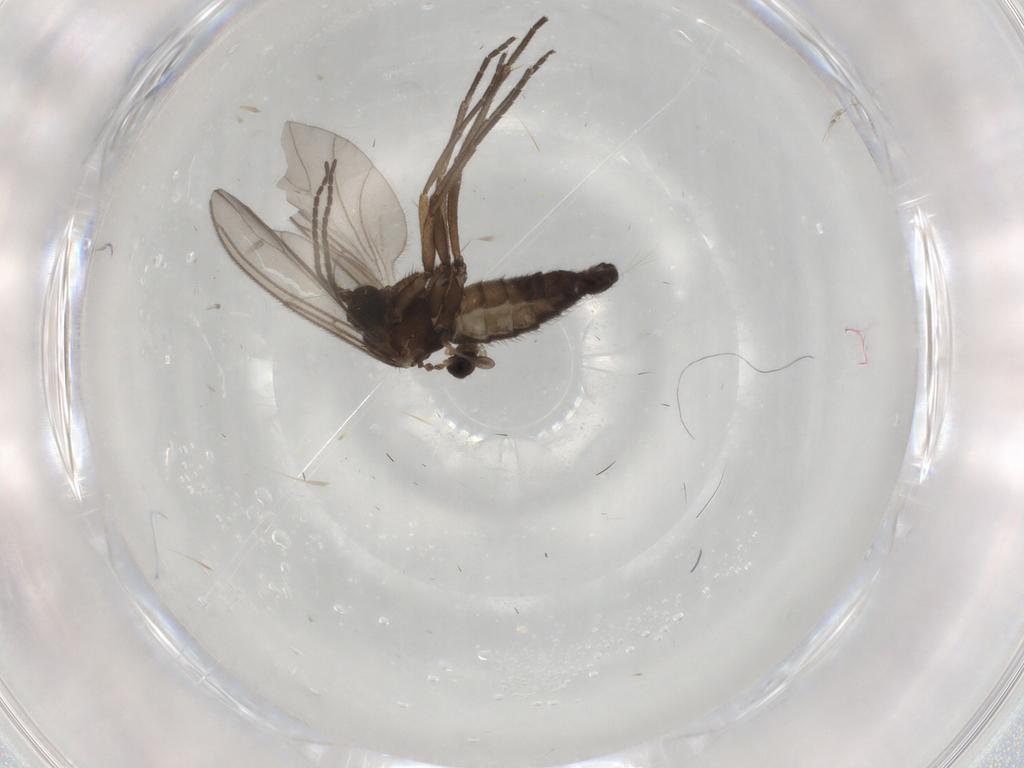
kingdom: Animalia
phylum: Arthropoda
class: Insecta
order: Diptera
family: Sciaridae
